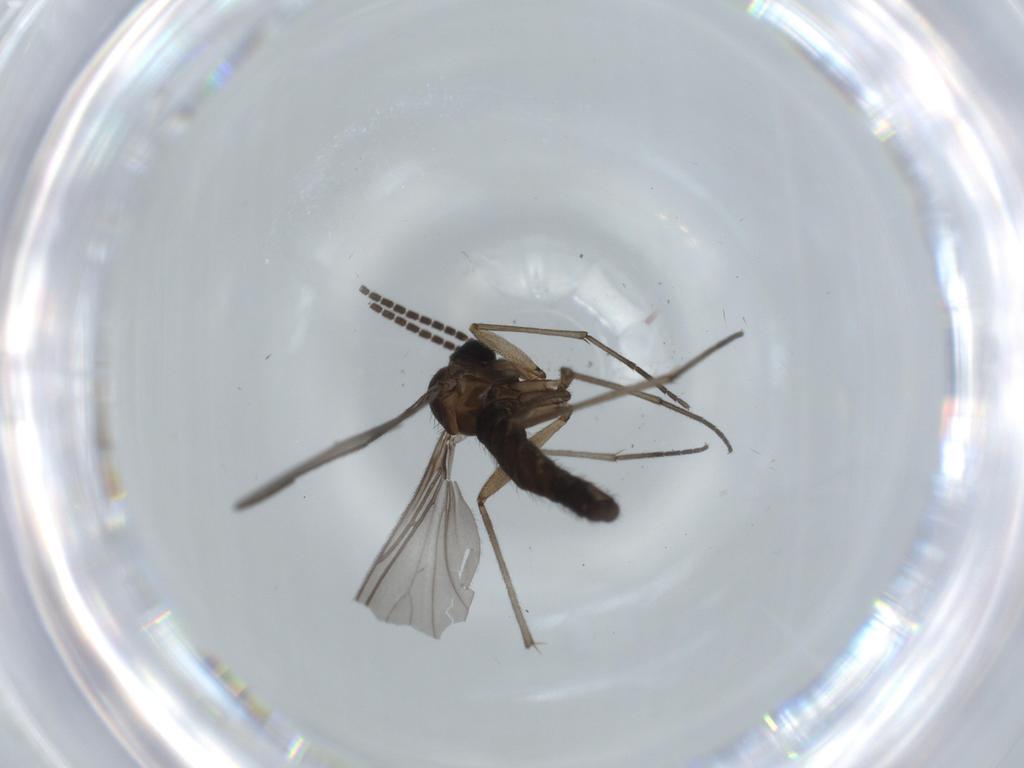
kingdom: Animalia
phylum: Arthropoda
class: Insecta
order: Diptera
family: Sciaridae
